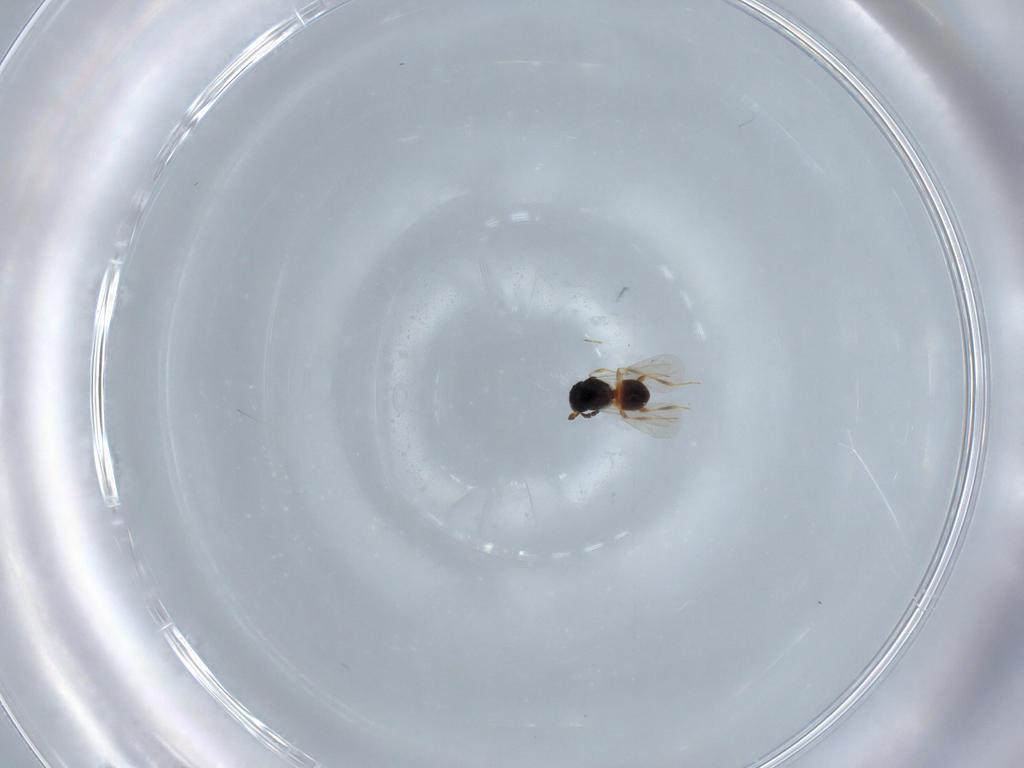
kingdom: Animalia
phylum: Arthropoda
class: Insecta
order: Hymenoptera
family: Platygastridae
